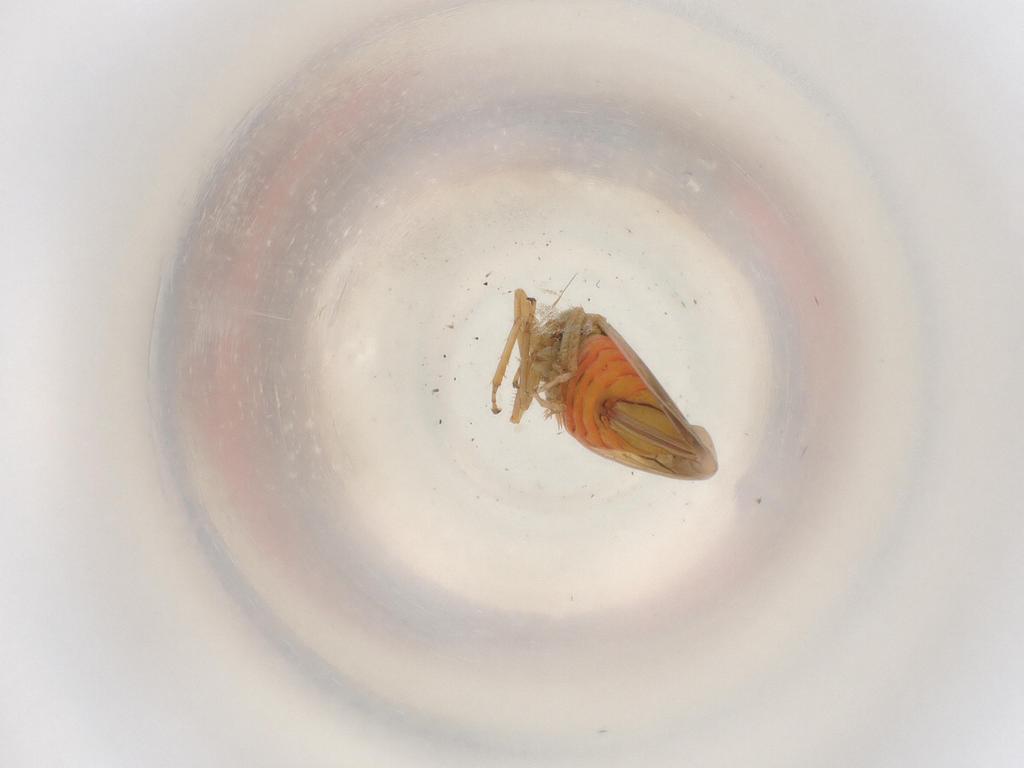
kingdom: Animalia
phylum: Arthropoda
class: Insecta
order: Hemiptera
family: Cicadellidae
